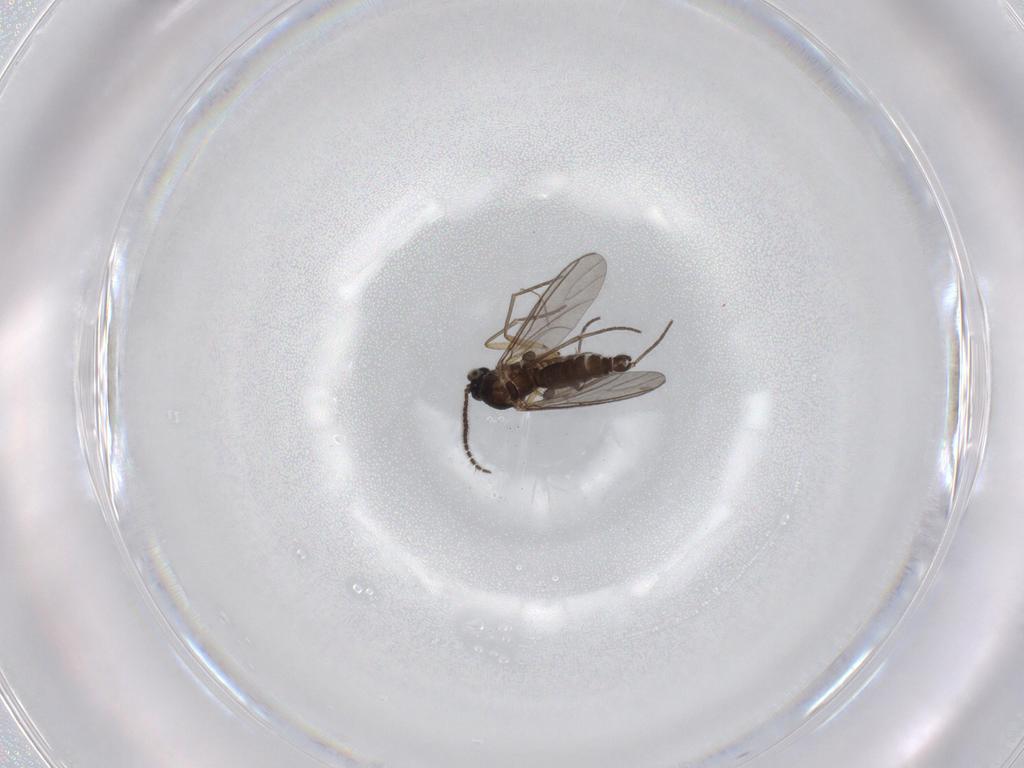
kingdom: Animalia
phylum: Arthropoda
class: Insecta
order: Diptera
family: Sciaridae
